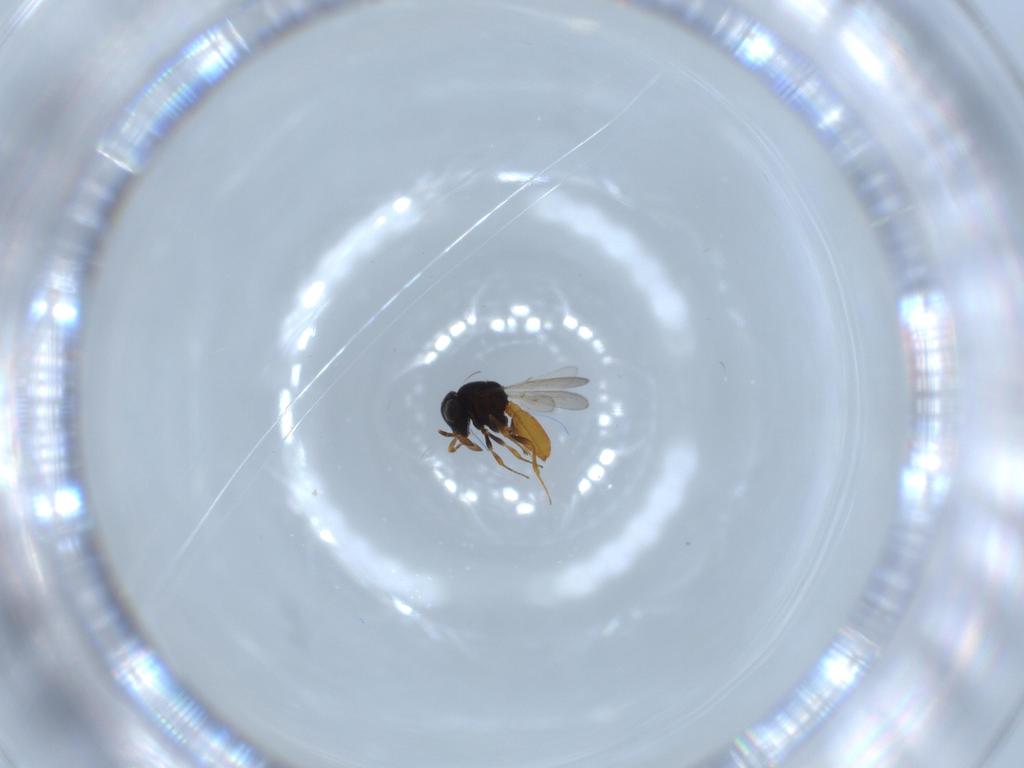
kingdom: Animalia
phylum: Arthropoda
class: Insecta
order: Hymenoptera
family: Scelionidae
